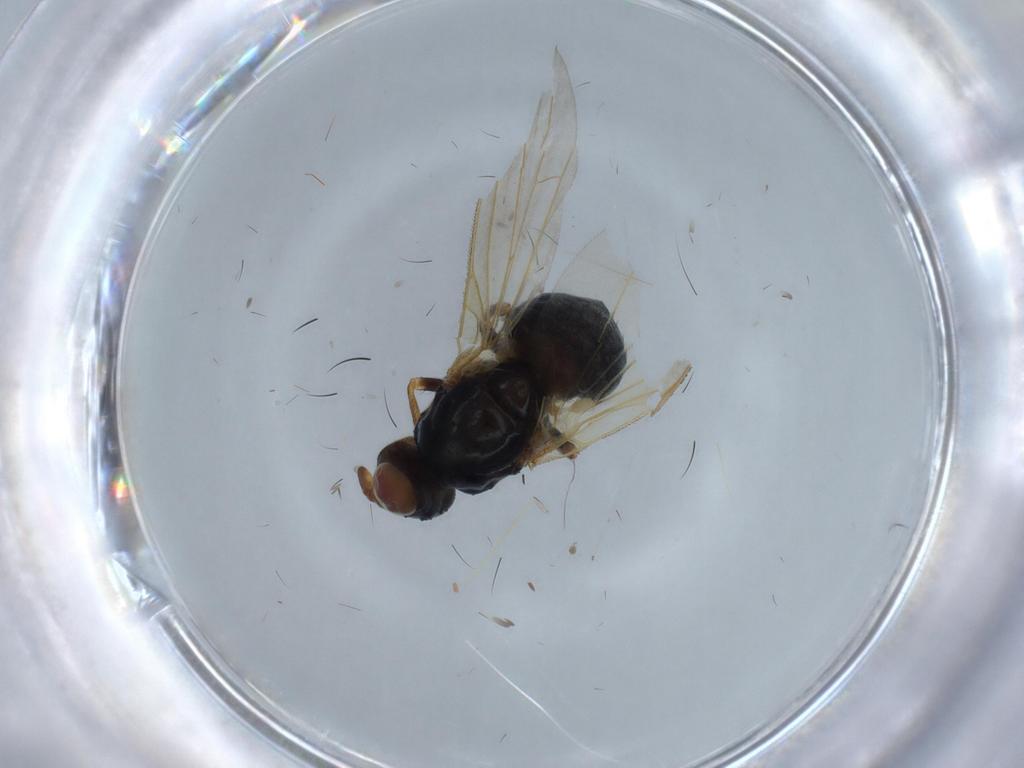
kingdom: Animalia
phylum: Arthropoda
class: Insecta
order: Diptera
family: Lauxaniidae
